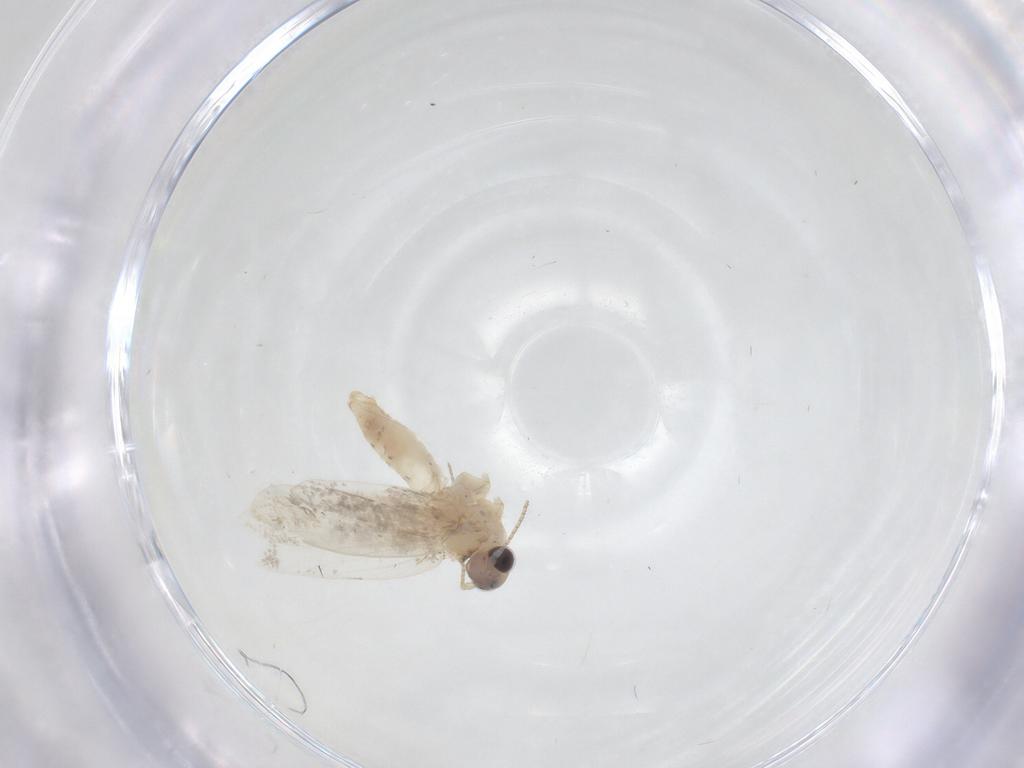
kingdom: Animalia
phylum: Arthropoda
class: Insecta
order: Lepidoptera
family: Psychidae
